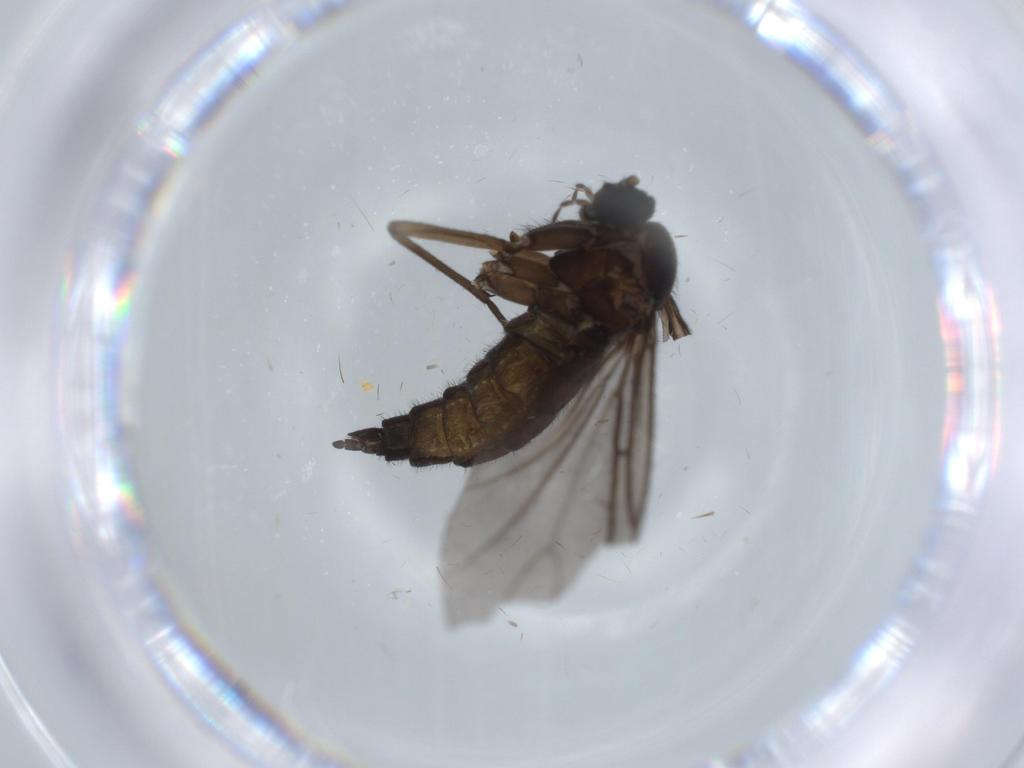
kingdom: Animalia
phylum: Arthropoda
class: Insecta
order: Diptera
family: Sciaridae
